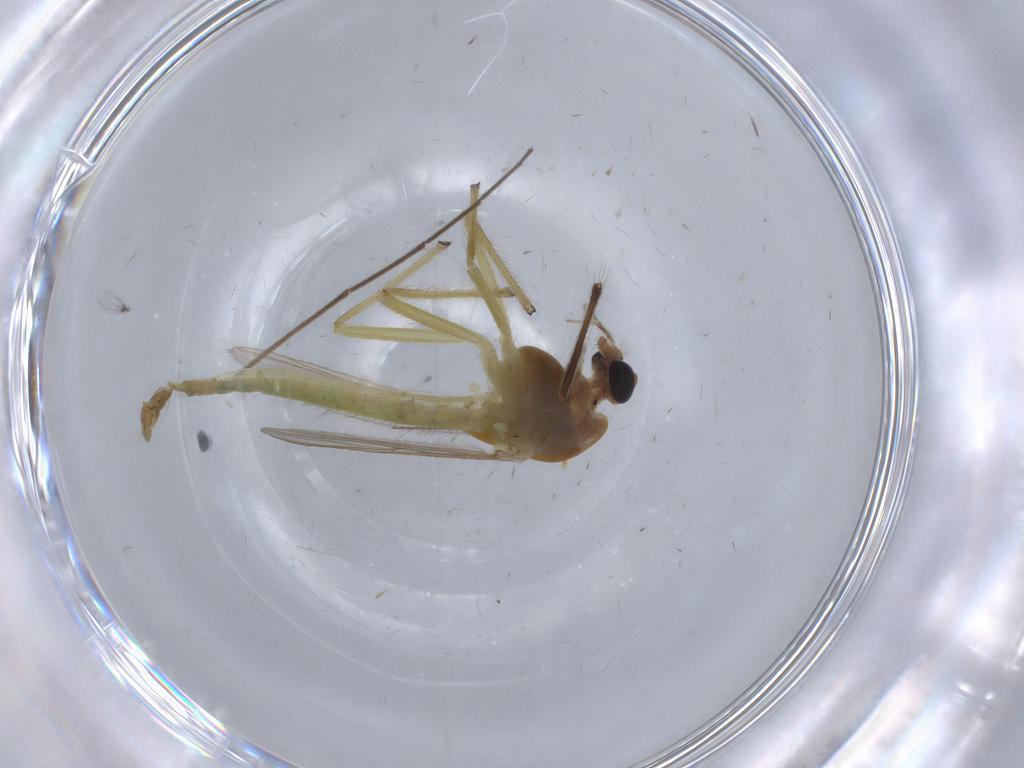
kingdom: Animalia
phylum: Arthropoda
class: Insecta
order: Diptera
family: Chironomidae
